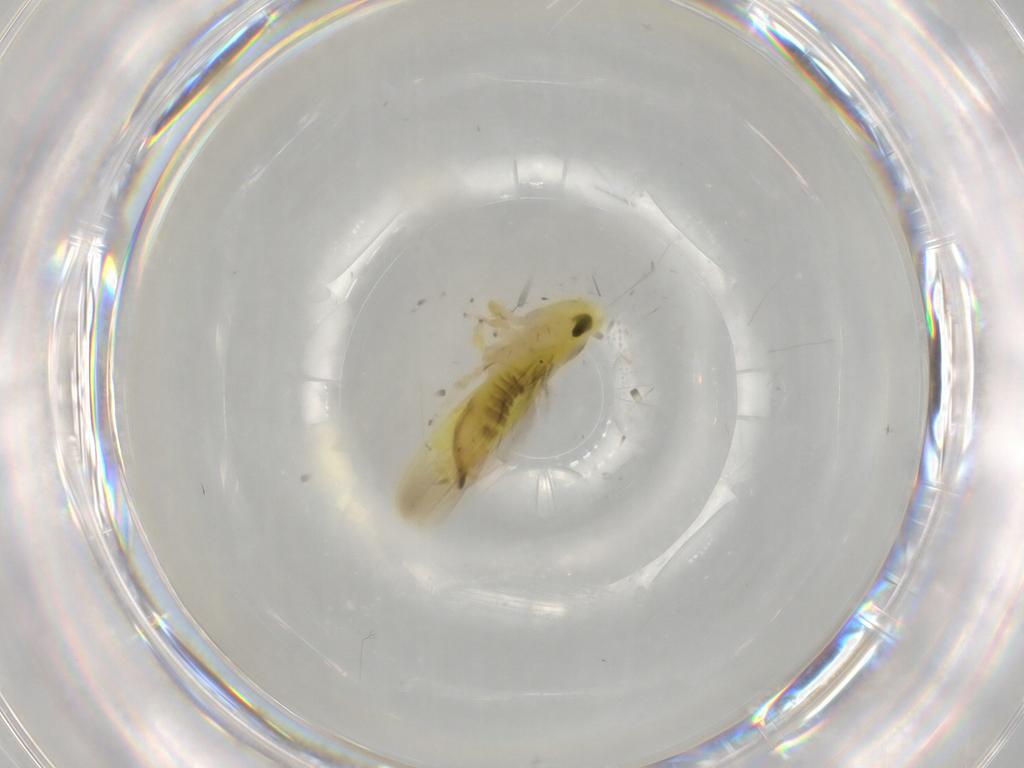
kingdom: Animalia
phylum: Arthropoda
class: Insecta
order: Hemiptera
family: Cicadellidae
